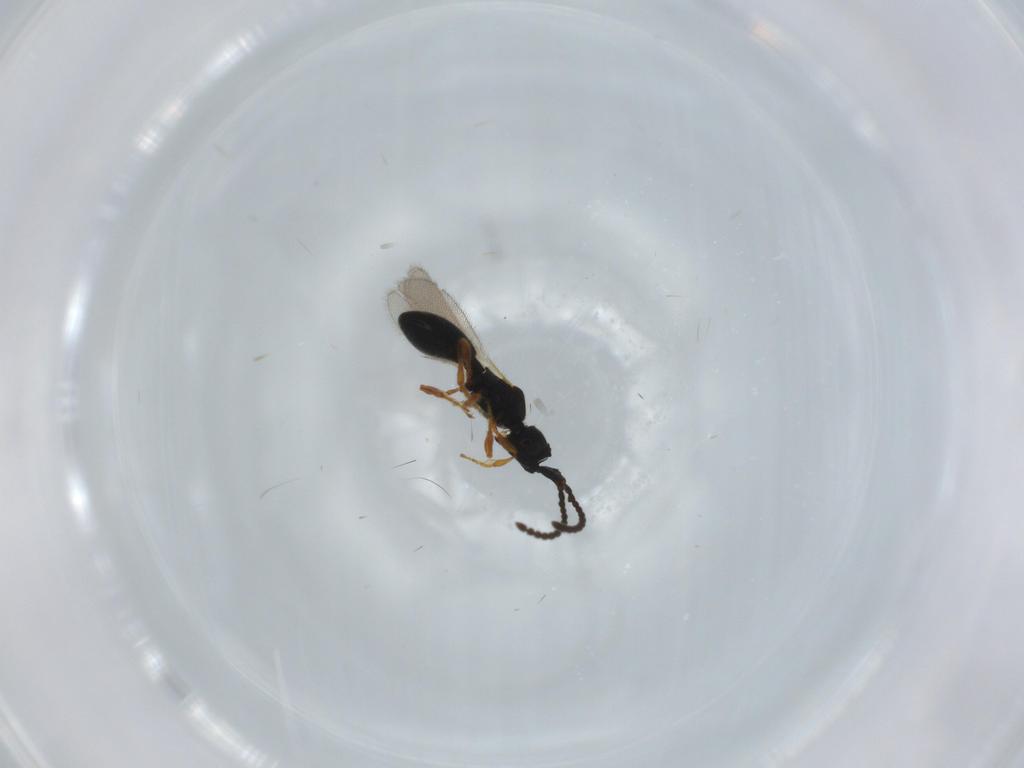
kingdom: Animalia
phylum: Arthropoda
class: Insecta
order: Hymenoptera
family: Diapriidae
